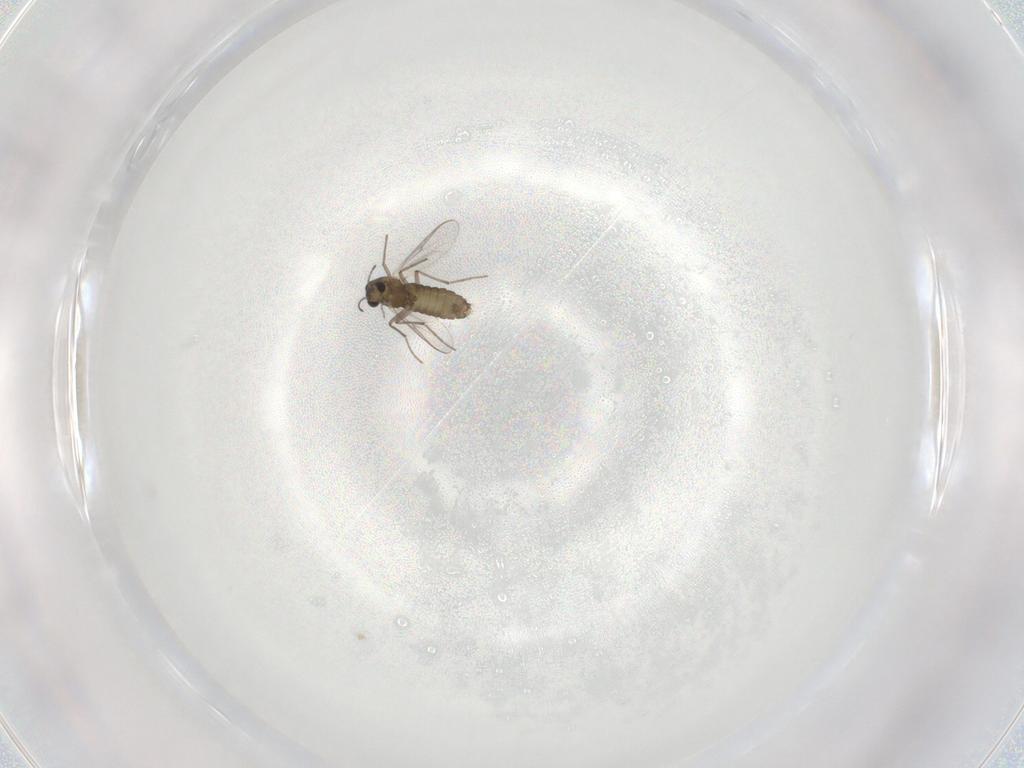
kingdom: Animalia
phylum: Arthropoda
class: Insecta
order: Diptera
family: Chironomidae
